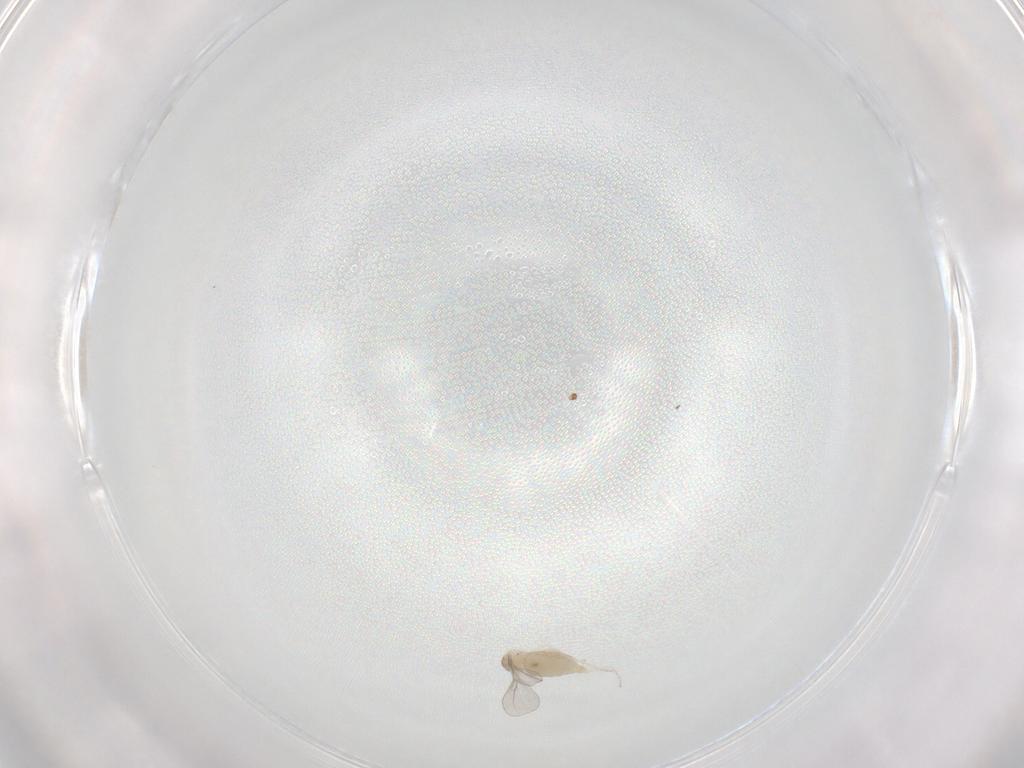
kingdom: Animalia
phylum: Arthropoda
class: Insecta
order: Diptera
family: Cecidomyiidae
